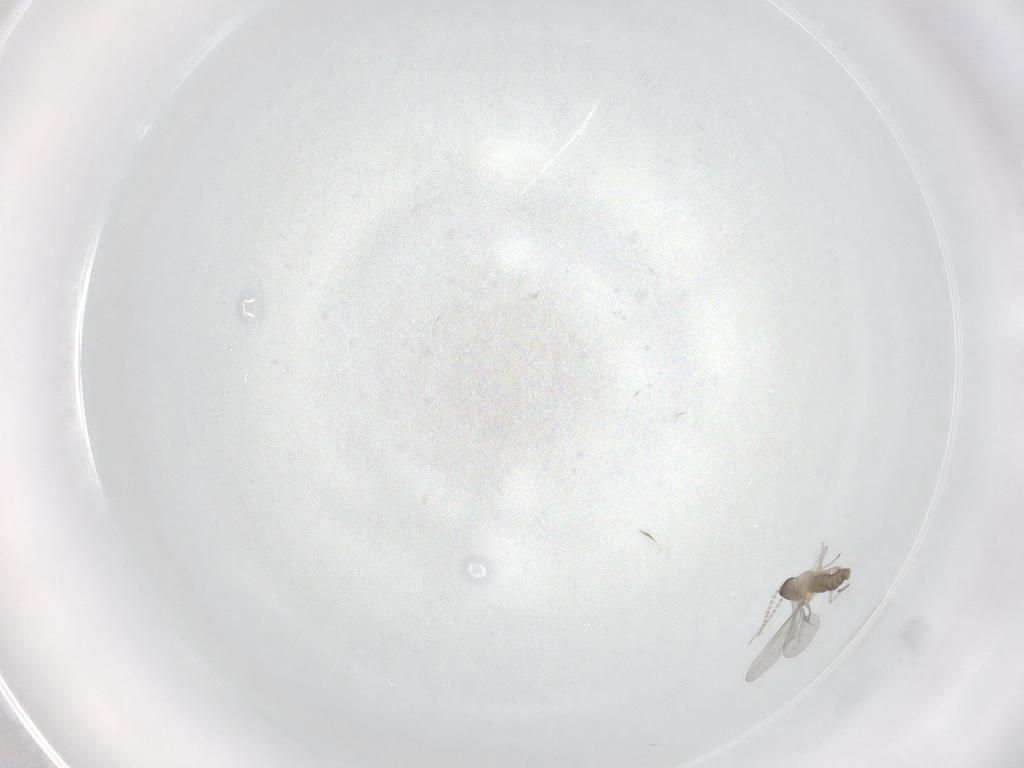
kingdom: Animalia
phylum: Arthropoda
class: Insecta
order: Diptera
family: Cecidomyiidae
